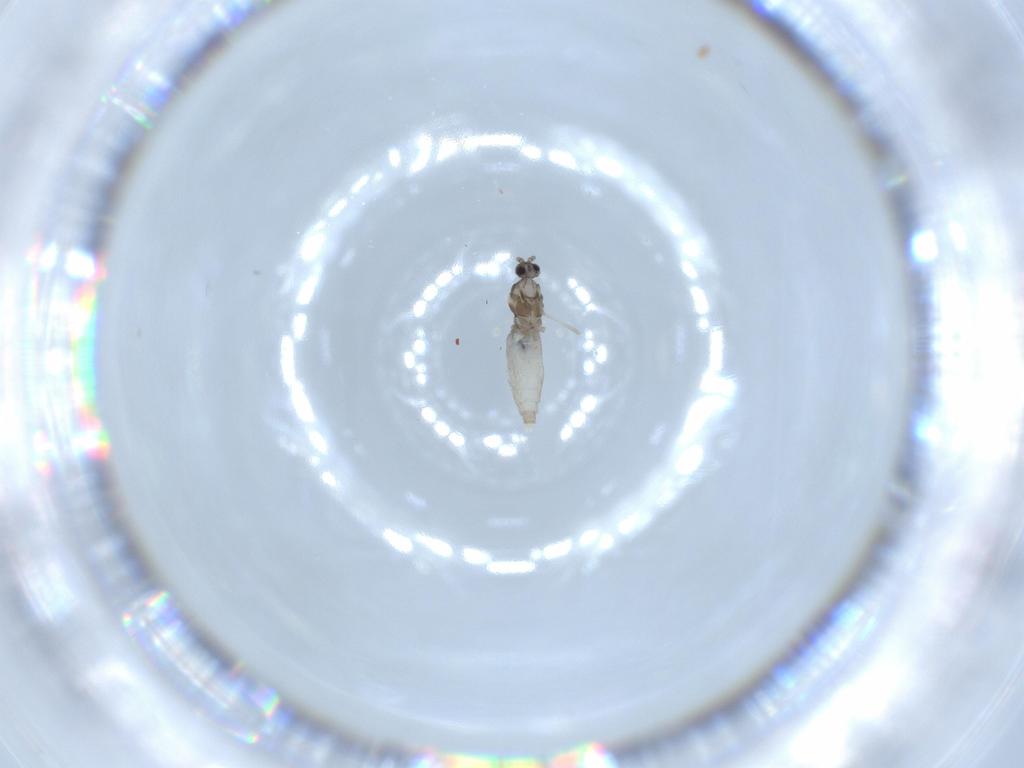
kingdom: Animalia
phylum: Arthropoda
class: Insecta
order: Diptera
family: Cecidomyiidae
